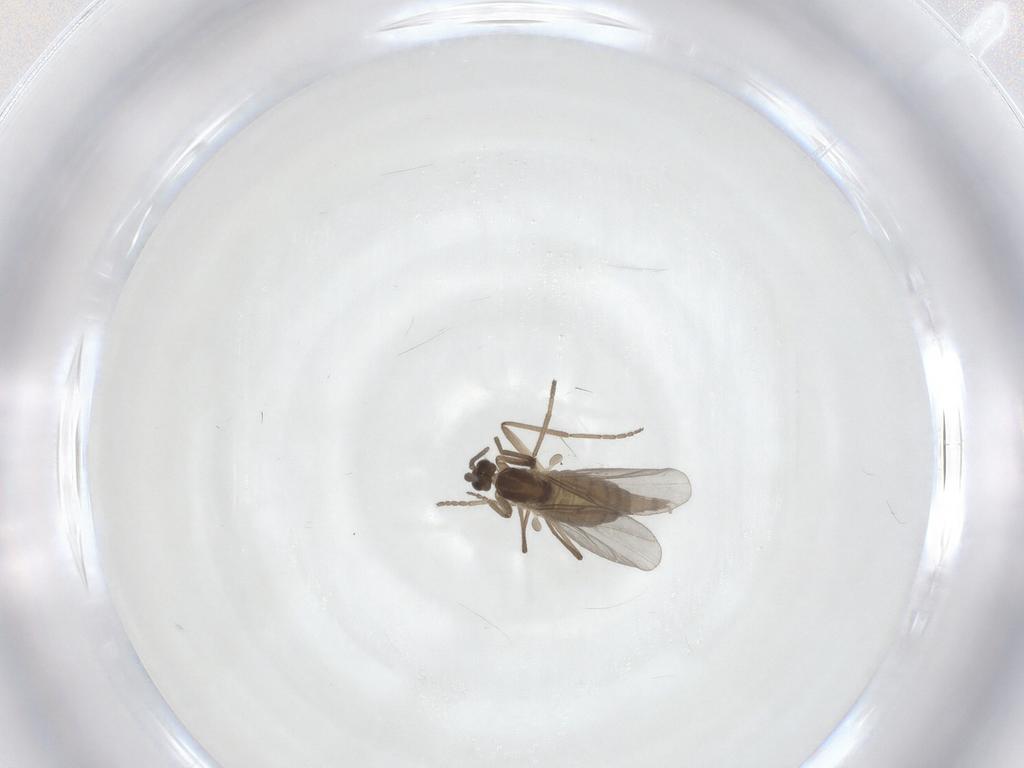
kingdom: Animalia
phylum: Arthropoda
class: Insecta
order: Diptera
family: Cecidomyiidae
